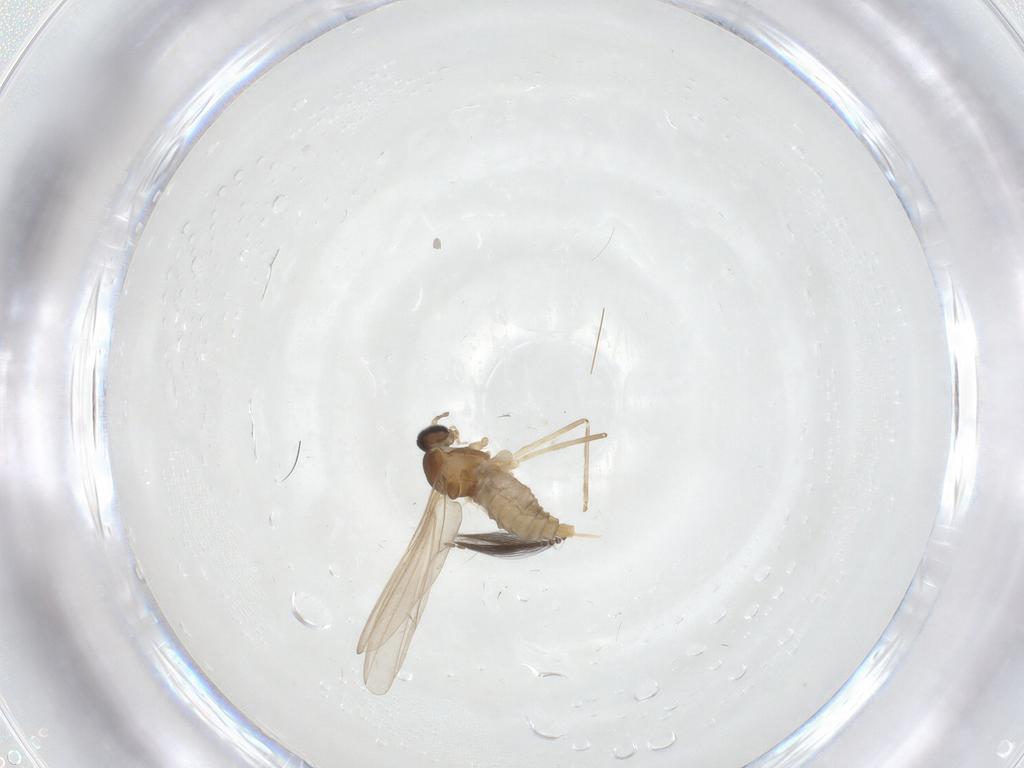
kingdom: Animalia
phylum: Arthropoda
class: Insecta
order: Diptera
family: Cecidomyiidae
